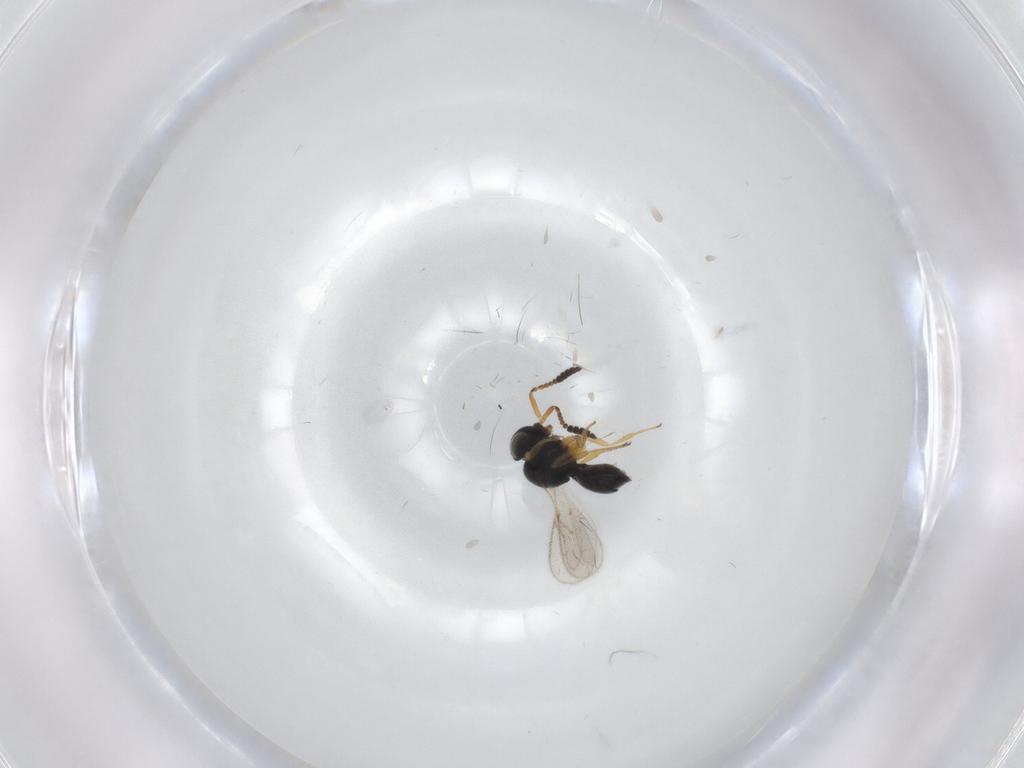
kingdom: Animalia
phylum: Arthropoda
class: Insecta
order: Hymenoptera
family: Scelionidae
